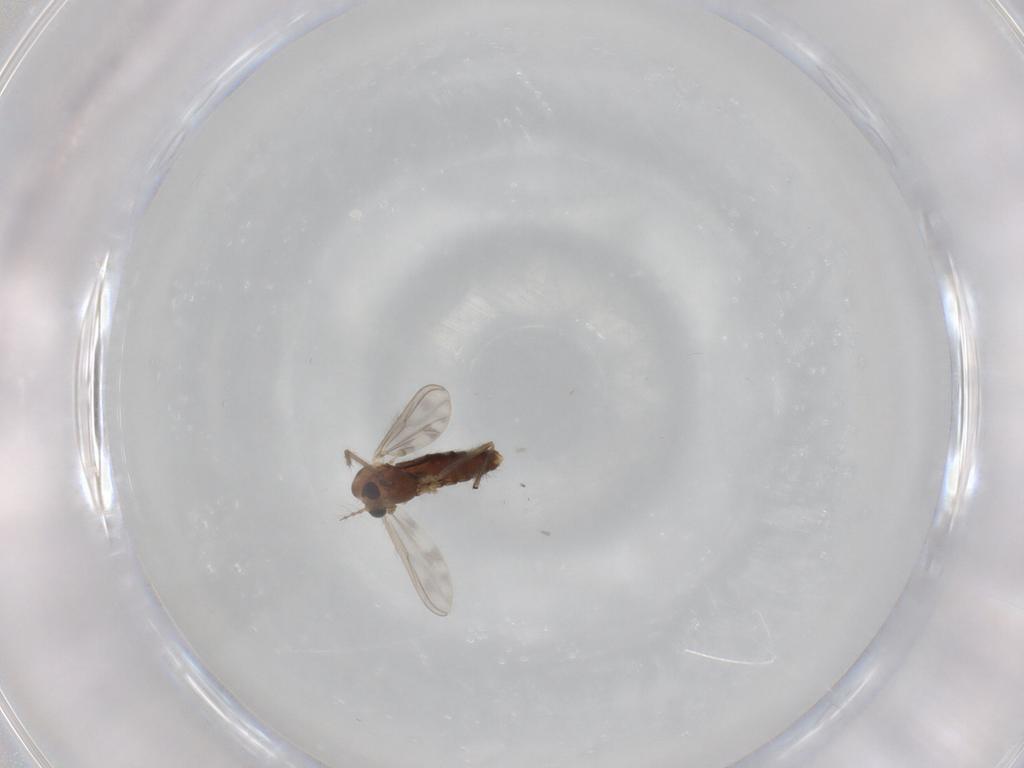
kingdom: Animalia
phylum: Arthropoda
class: Insecta
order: Diptera
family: Chironomidae
